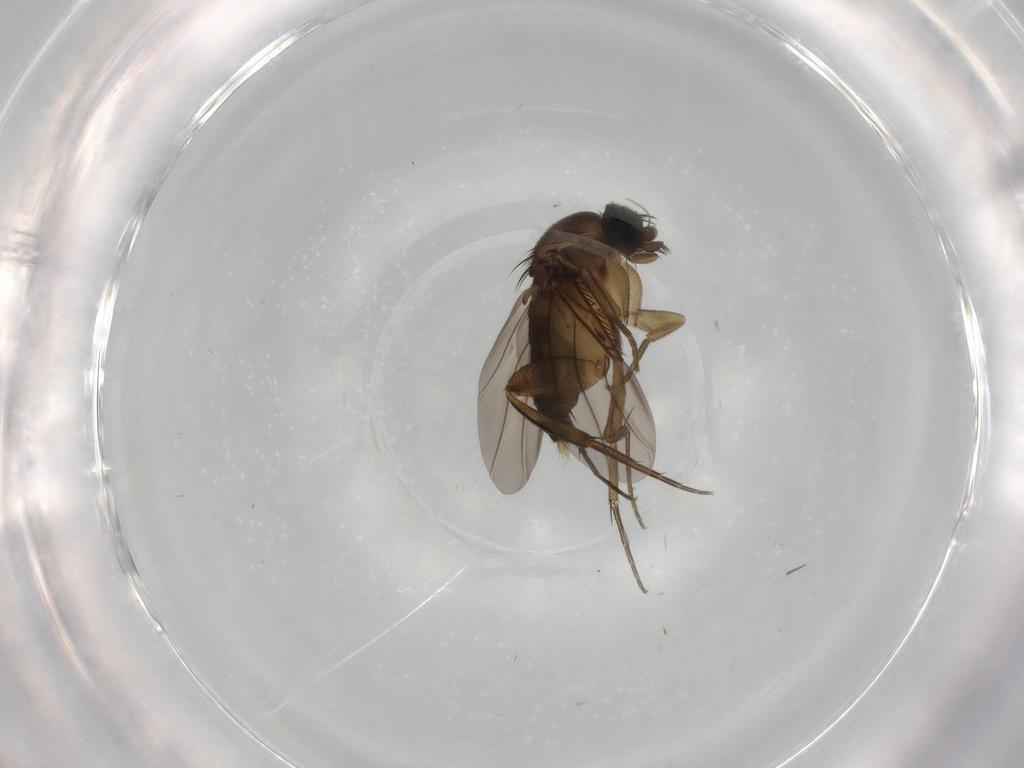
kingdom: Animalia
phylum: Arthropoda
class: Insecta
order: Diptera
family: Phoridae
